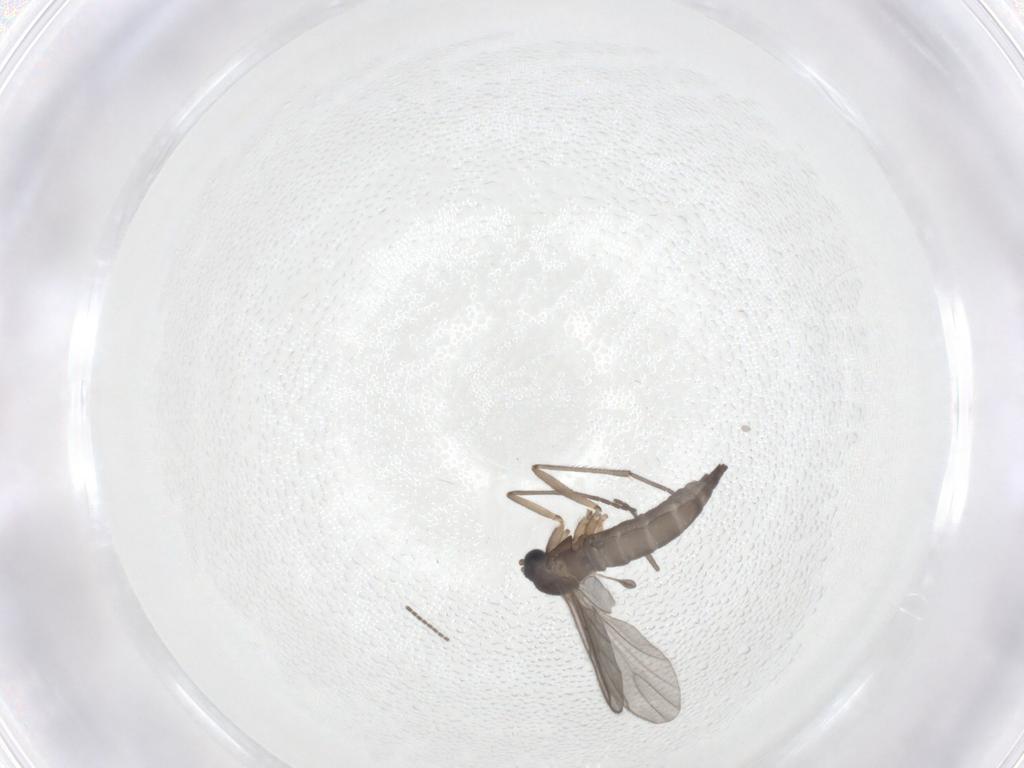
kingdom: Animalia
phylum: Arthropoda
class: Insecta
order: Diptera
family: Sciaridae
